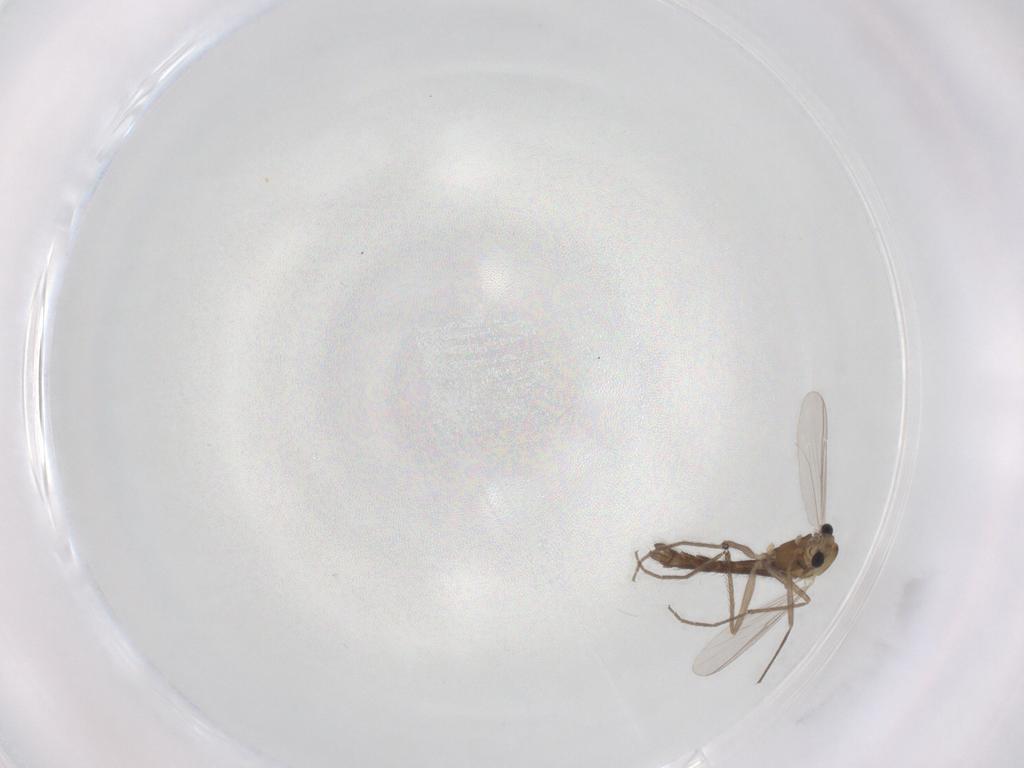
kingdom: Animalia
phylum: Arthropoda
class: Insecta
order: Diptera
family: Chironomidae
